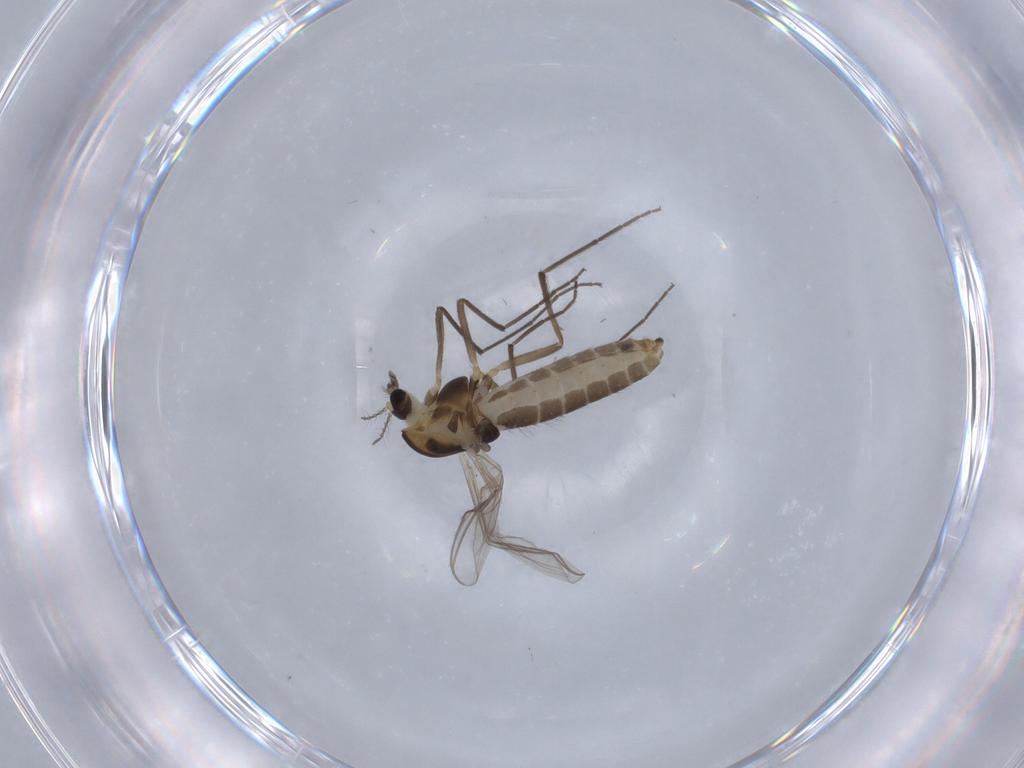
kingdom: Animalia
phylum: Arthropoda
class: Insecta
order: Diptera
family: Chironomidae
